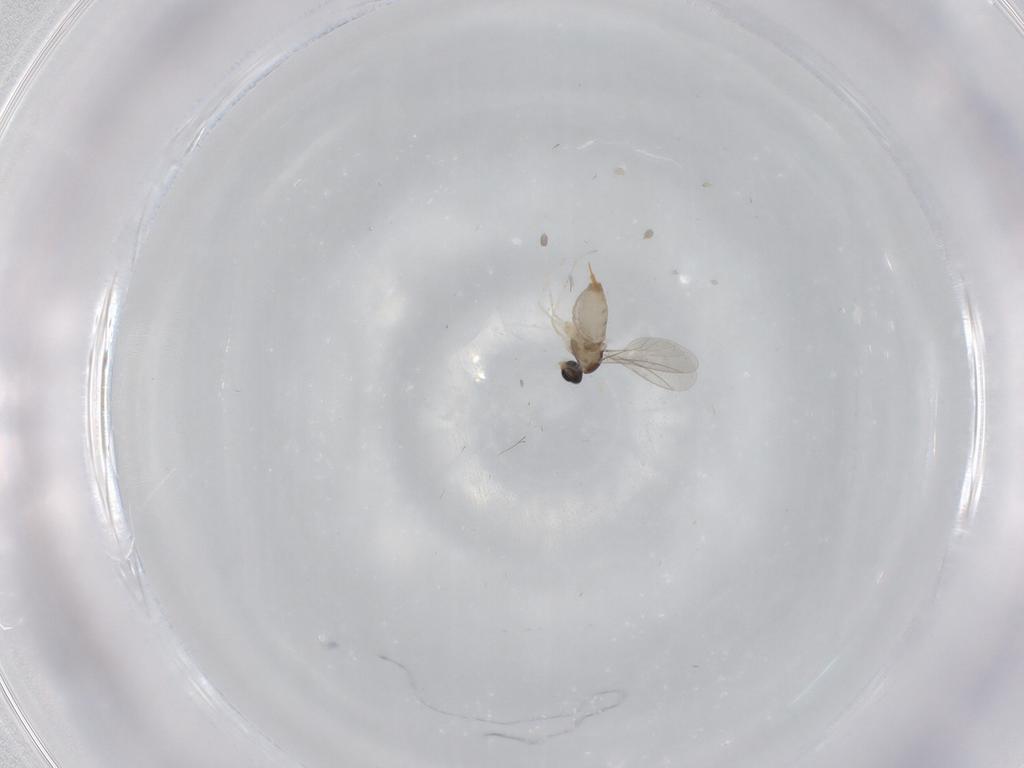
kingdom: Animalia
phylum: Arthropoda
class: Insecta
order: Diptera
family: Cecidomyiidae
